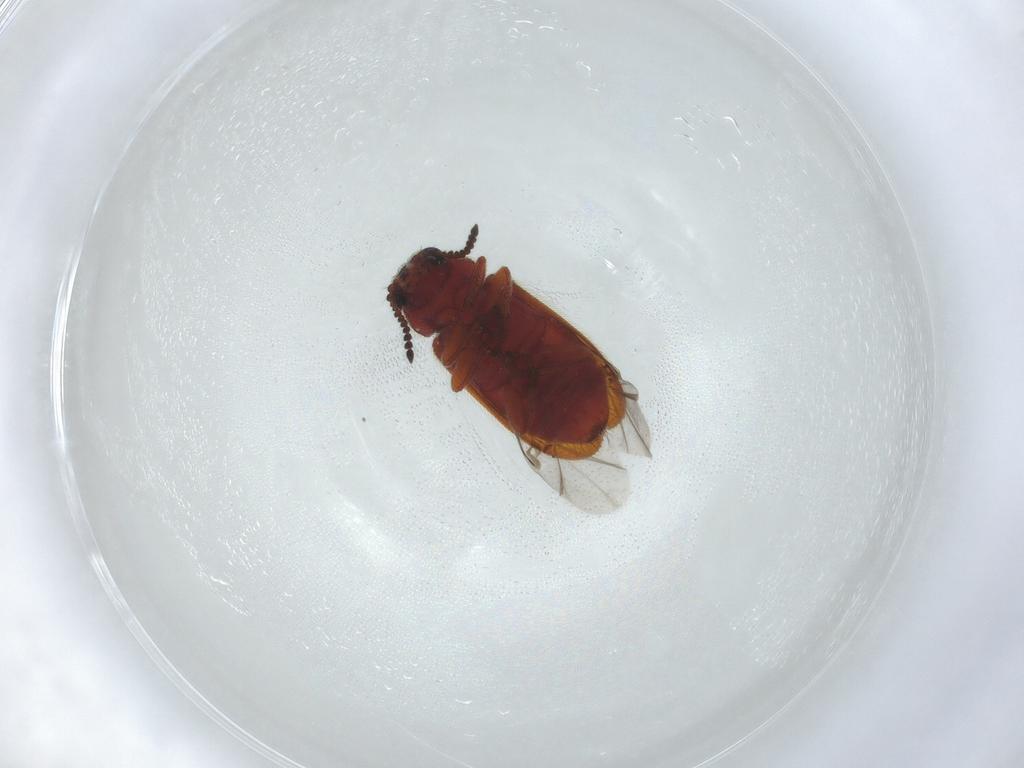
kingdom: Animalia
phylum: Arthropoda
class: Insecta
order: Coleoptera
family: Melyridae
